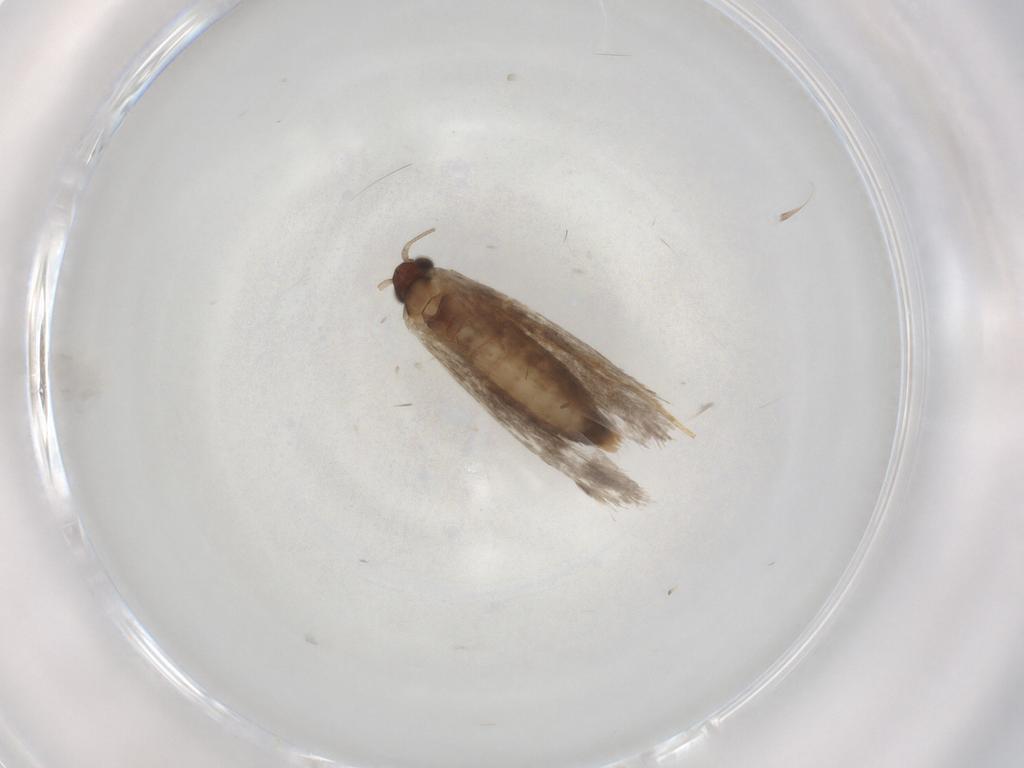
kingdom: Animalia
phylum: Arthropoda
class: Insecta
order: Lepidoptera
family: Tineidae
